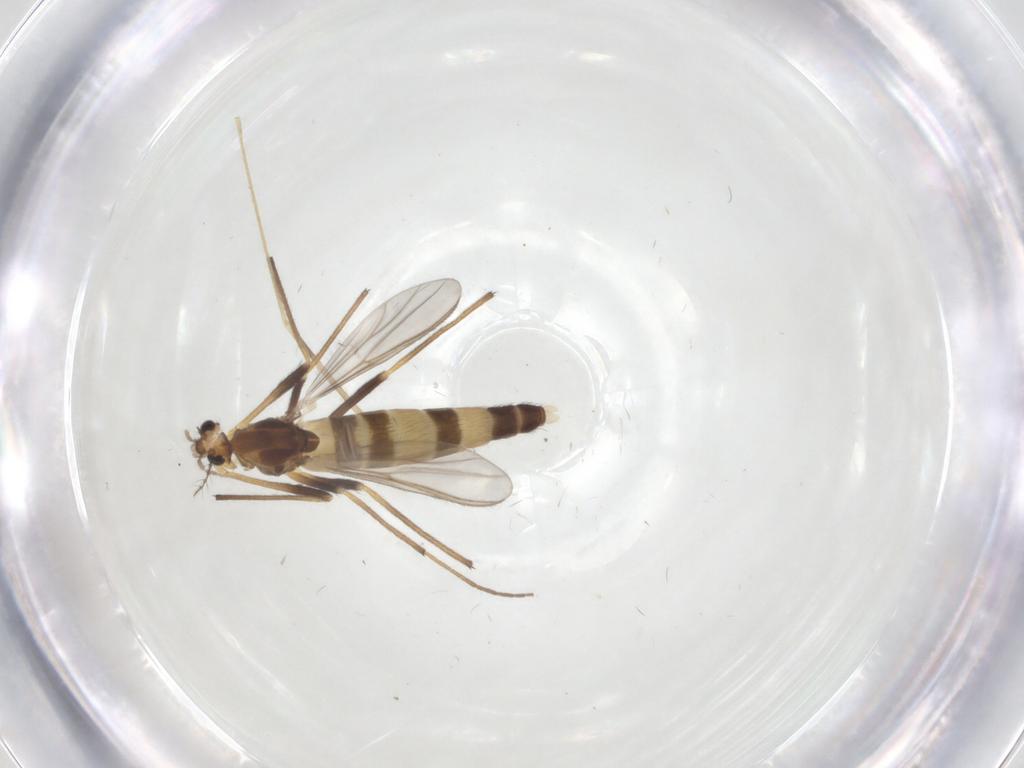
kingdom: Animalia
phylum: Arthropoda
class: Insecta
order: Diptera
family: Chironomidae
